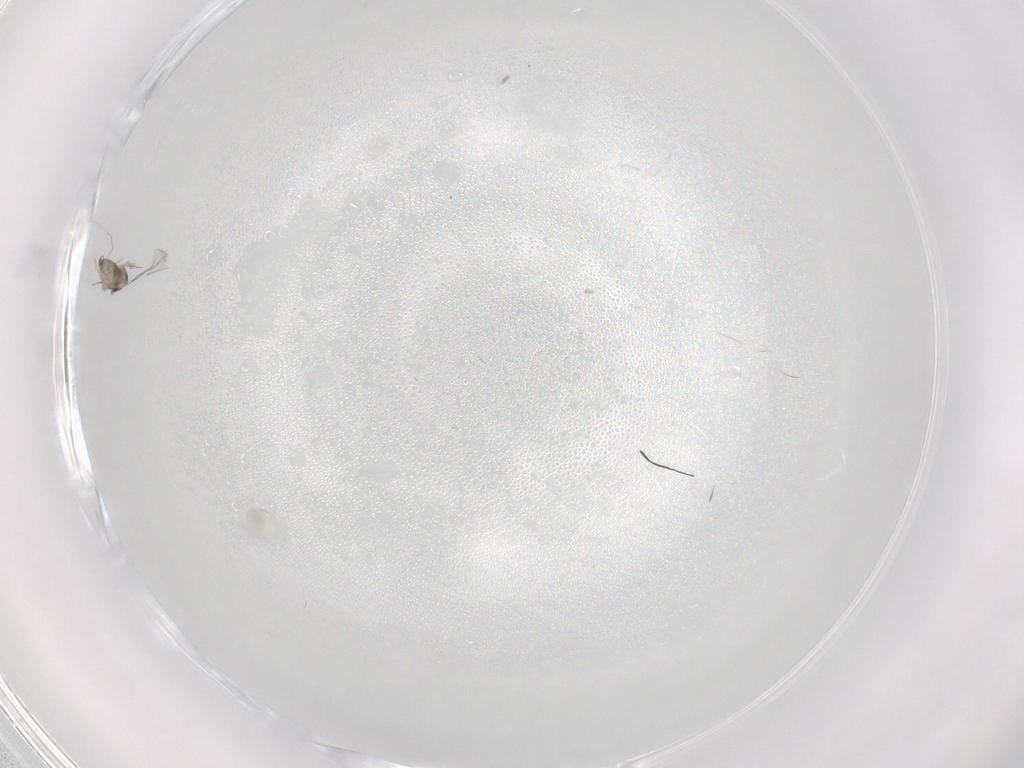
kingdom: Animalia
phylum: Arthropoda
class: Insecta
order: Diptera
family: Cecidomyiidae
